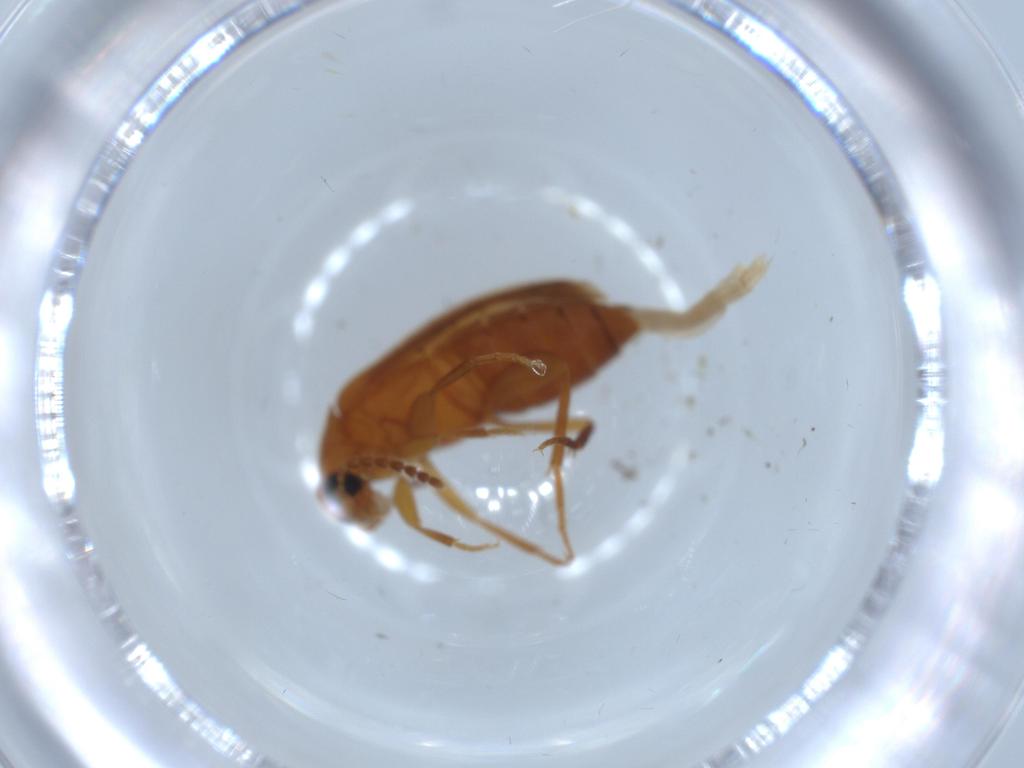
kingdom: Animalia
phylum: Arthropoda
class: Insecta
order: Coleoptera
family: Scraptiidae
